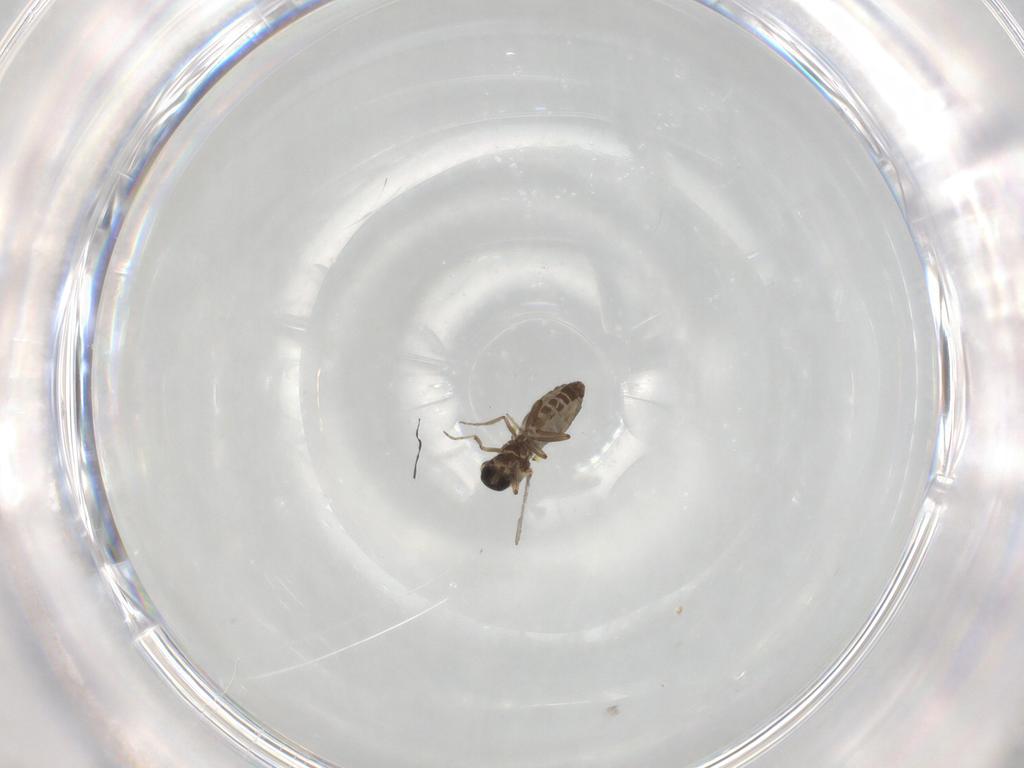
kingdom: Animalia
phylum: Arthropoda
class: Insecta
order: Diptera
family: Ceratopogonidae
